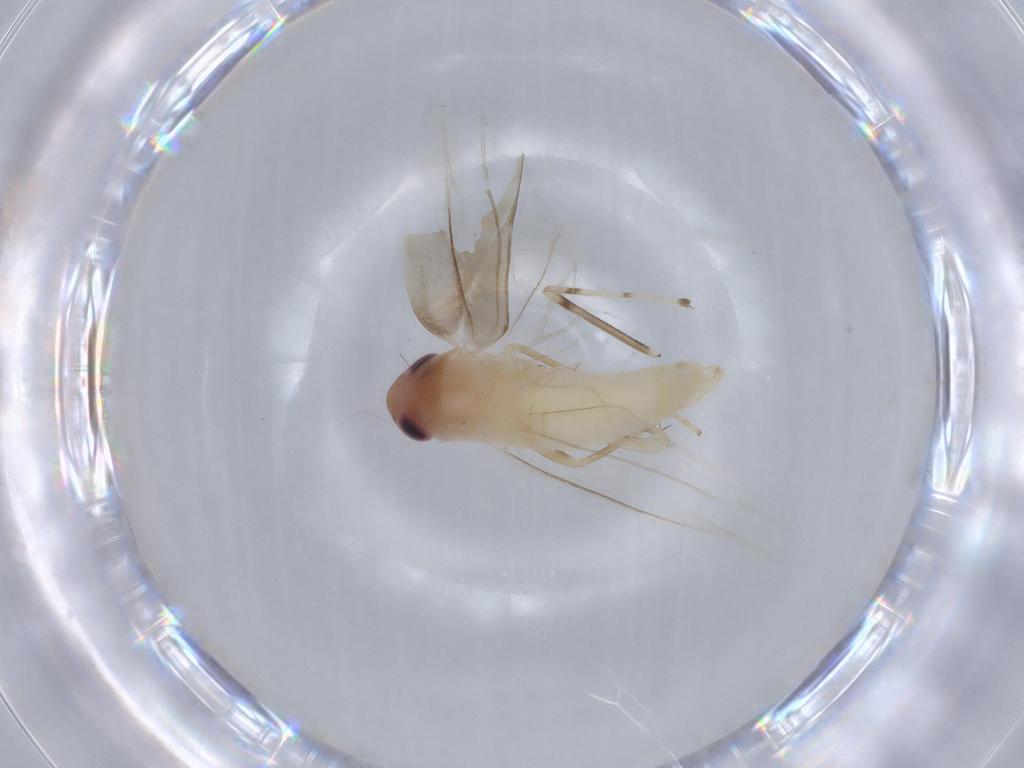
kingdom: Animalia
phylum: Arthropoda
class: Insecta
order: Hemiptera
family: Cicadellidae
